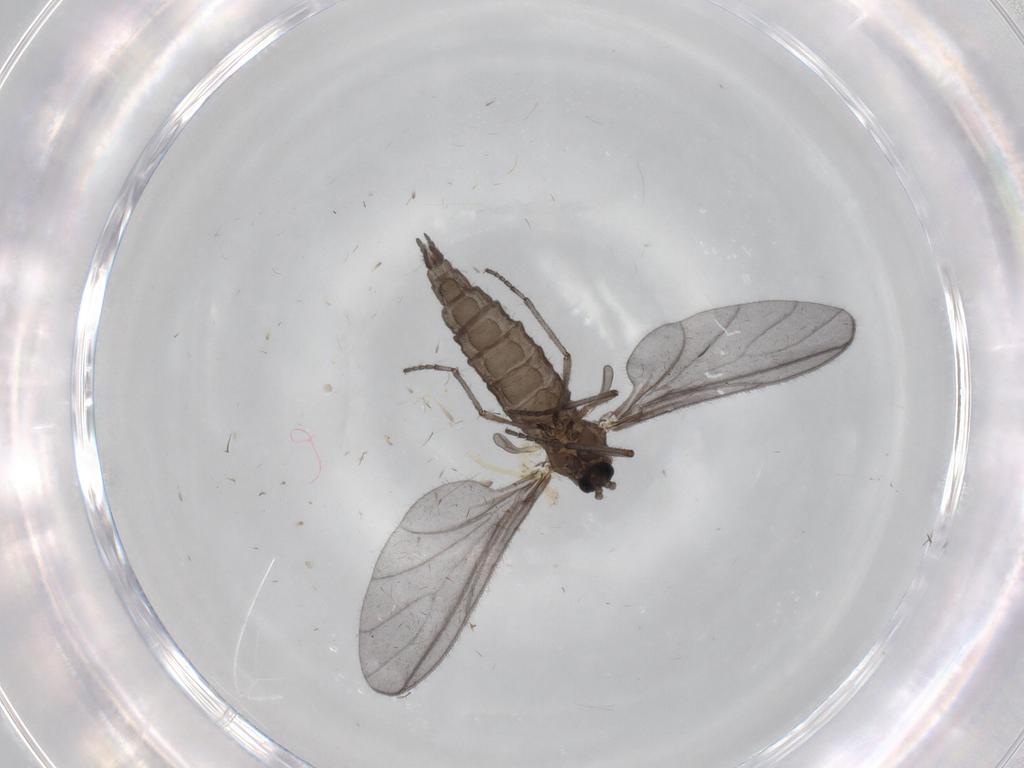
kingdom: Animalia
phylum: Arthropoda
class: Insecta
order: Diptera
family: Sciaridae
